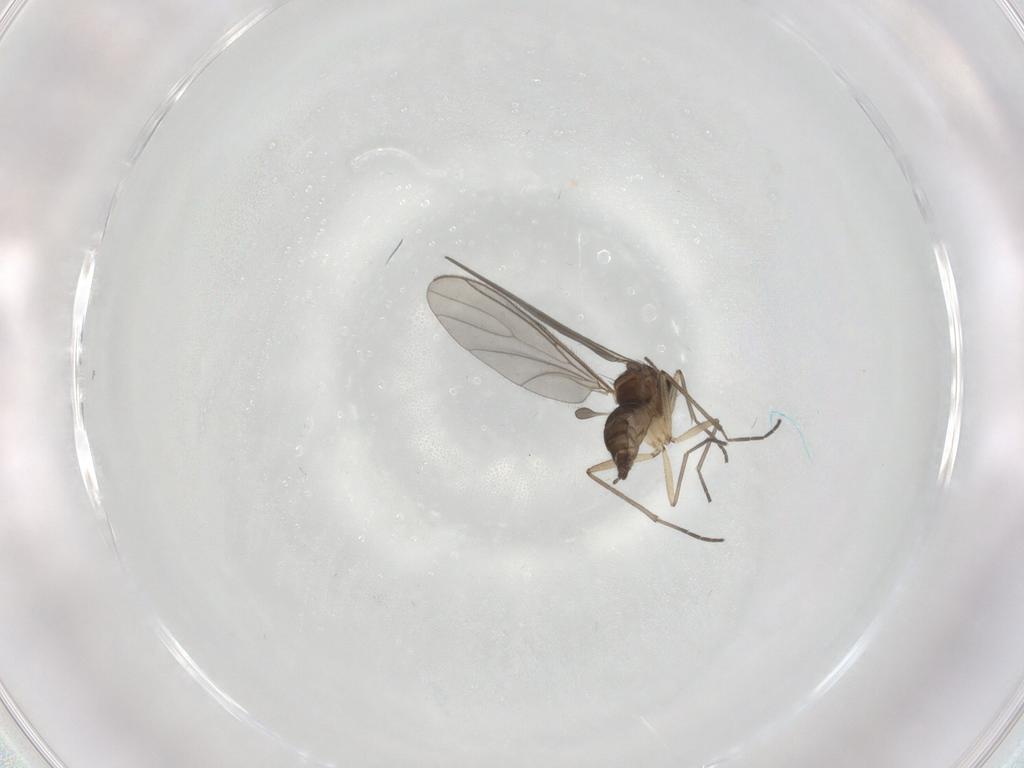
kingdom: Animalia
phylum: Arthropoda
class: Insecta
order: Diptera
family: Sciaridae
